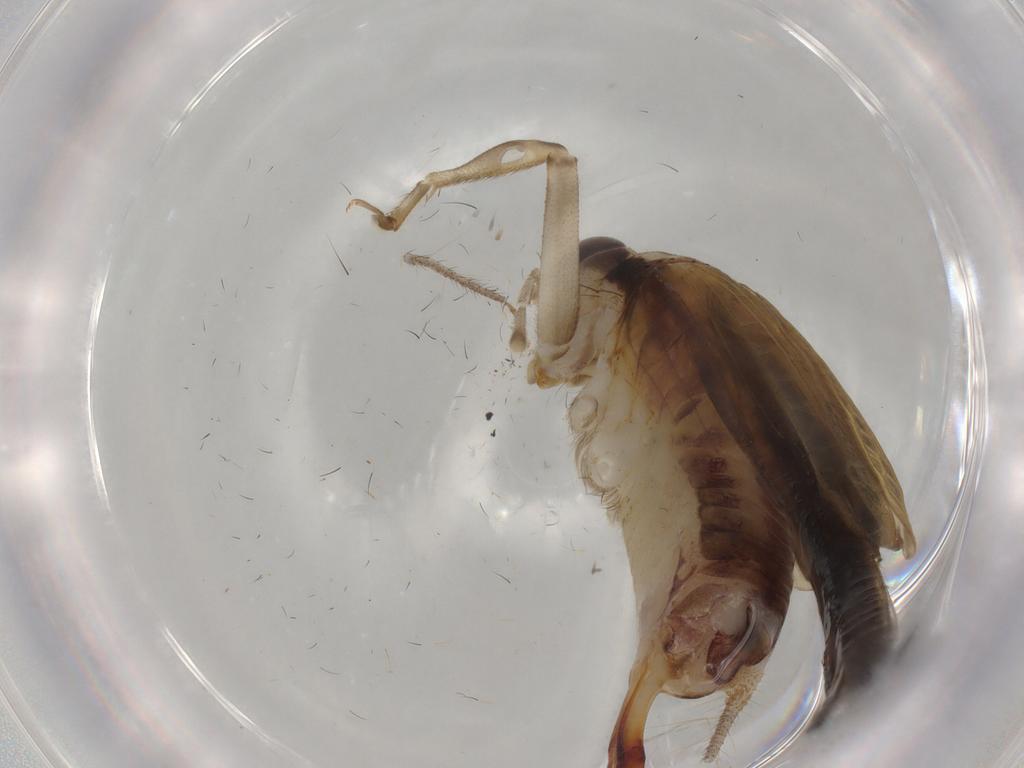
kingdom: Animalia
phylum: Arthropoda
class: Insecta
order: Orthoptera
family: Trigonidiidae
